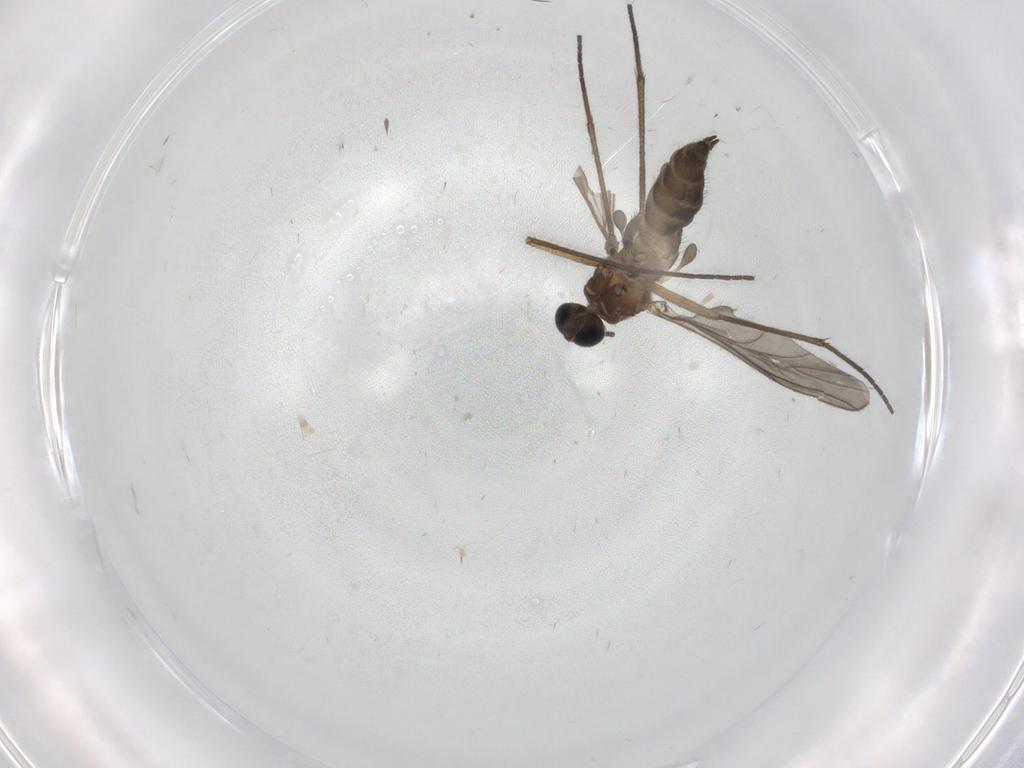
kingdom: Animalia
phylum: Arthropoda
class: Insecta
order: Diptera
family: Sciaridae
